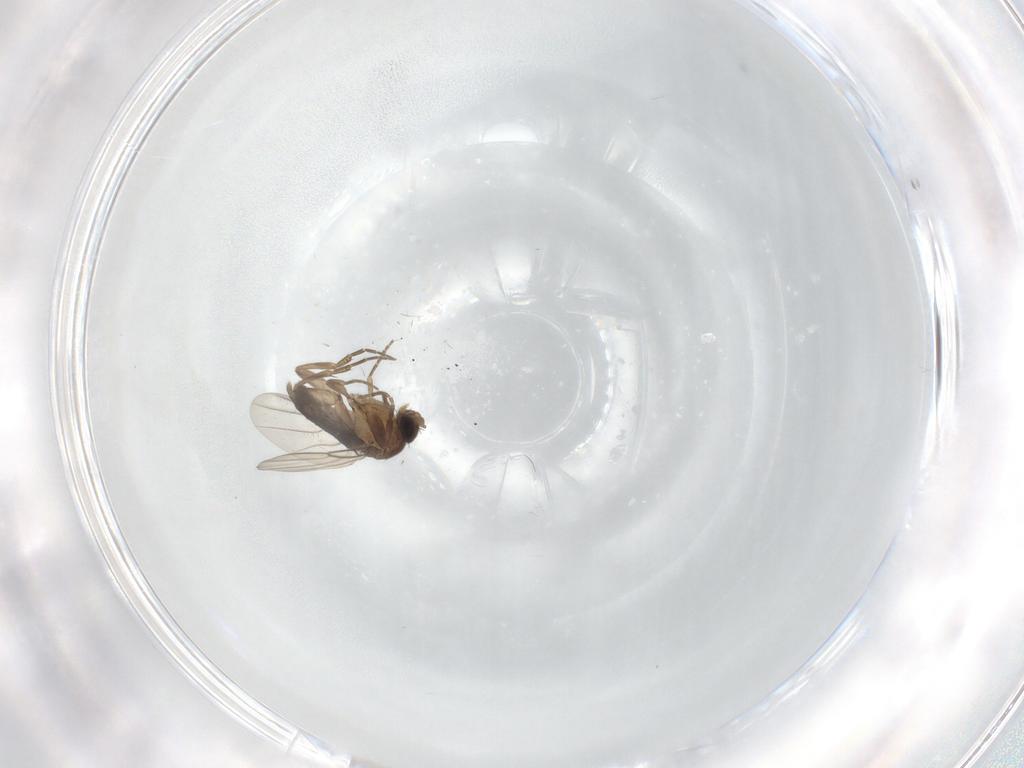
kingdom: Animalia
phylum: Arthropoda
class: Insecta
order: Diptera
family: Phoridae
